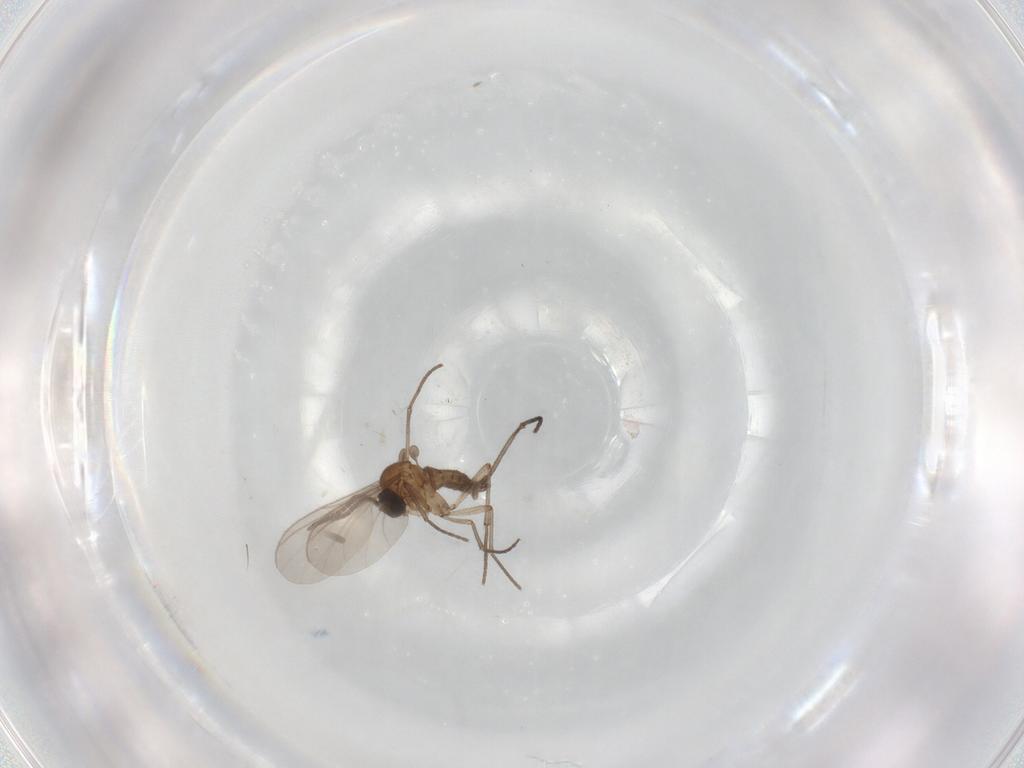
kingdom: Animalia
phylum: Arthropoda
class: Insecta
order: Diptera
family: Sciaridae
